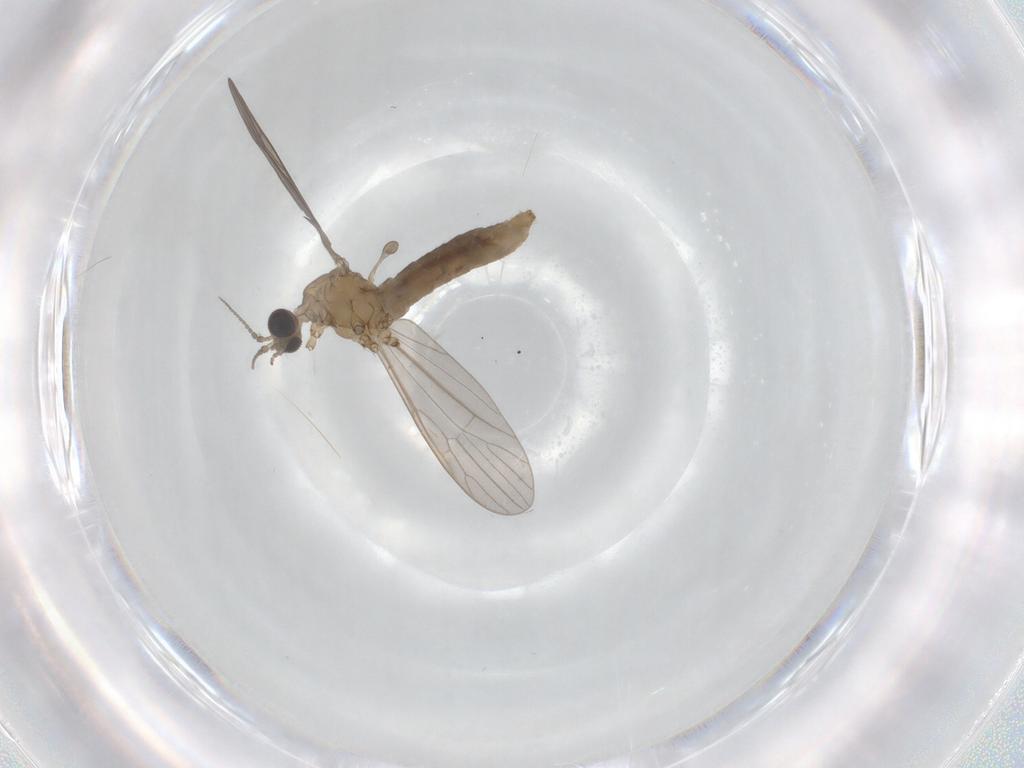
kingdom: Animalia
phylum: Arthropoda
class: Insecta
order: Diptera
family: Limoniidae
